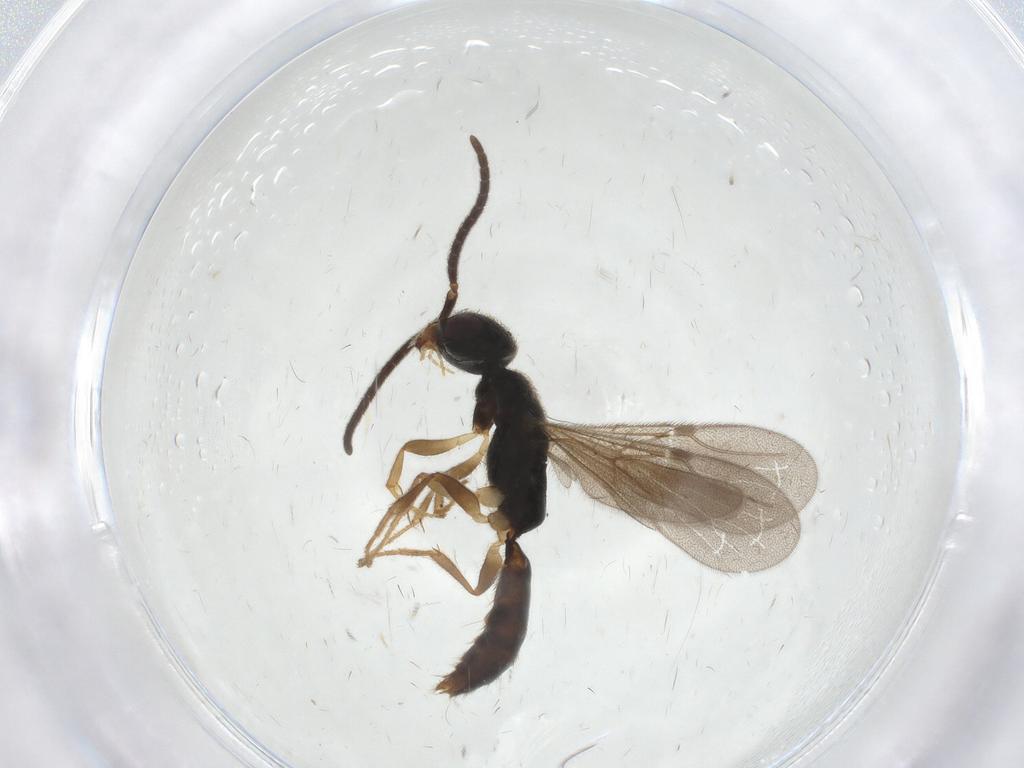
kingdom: Animalia
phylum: Arthropoda
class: Insecta
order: Hymenoptera
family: Bethylidae
